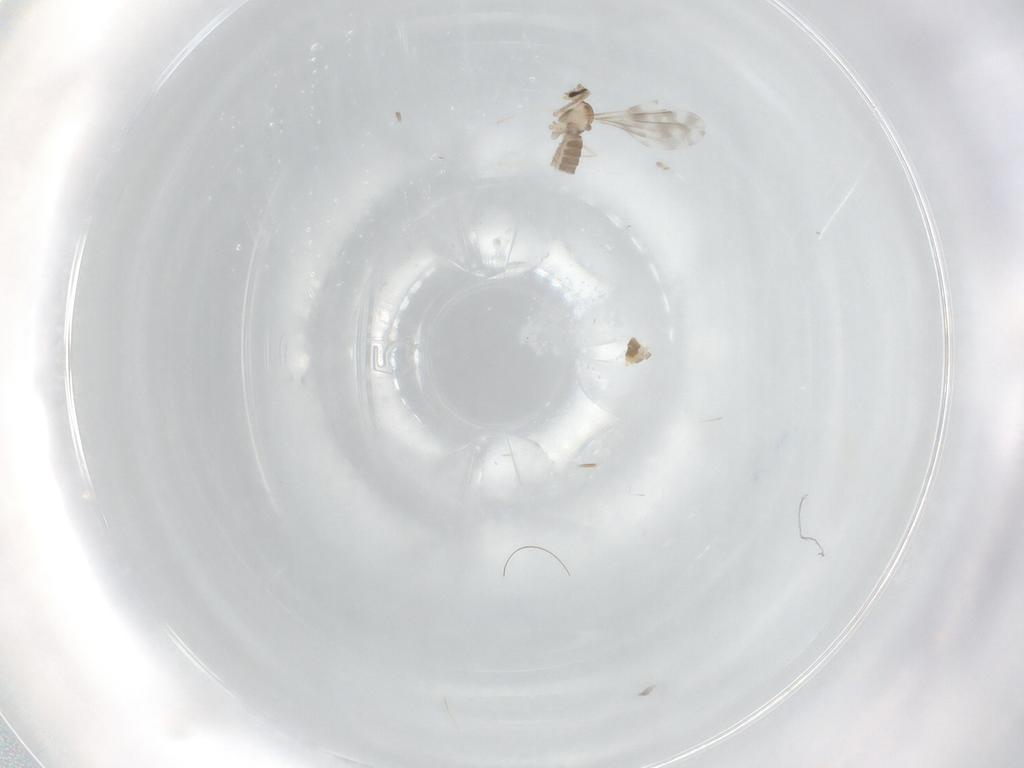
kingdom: Animalia
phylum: Arthropoda
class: Insecta
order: Diptera
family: Cecidomyiidae
